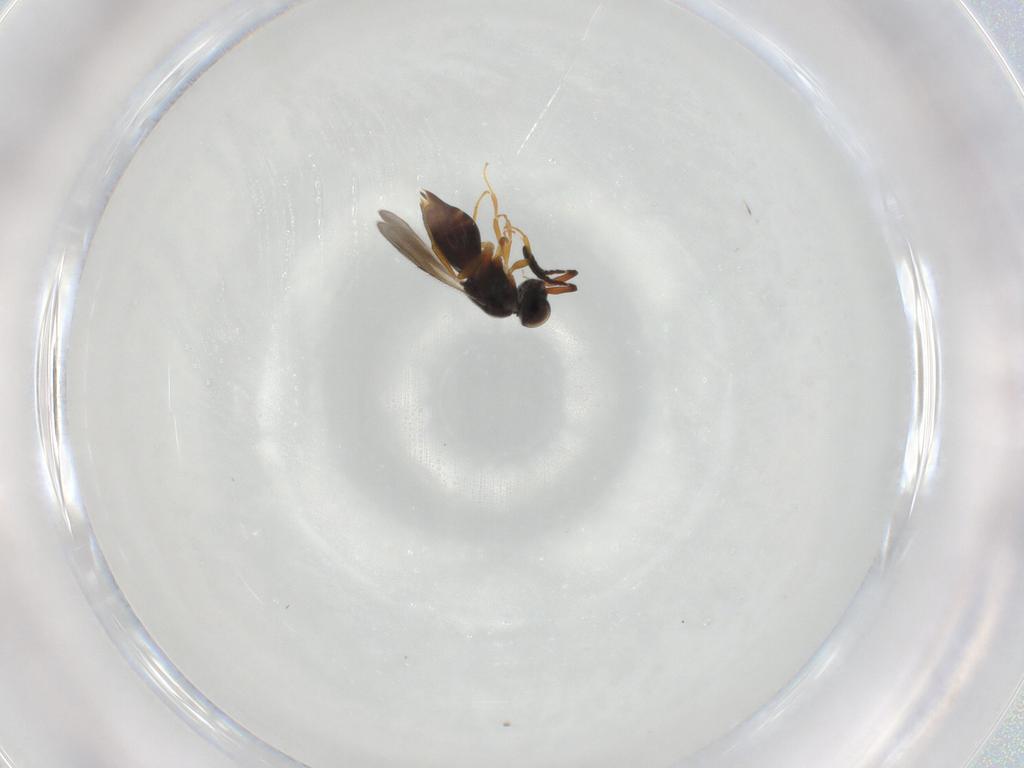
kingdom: Animalia
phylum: Arthropoda
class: Insecta
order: Hymenoptera
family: Bethylidae
